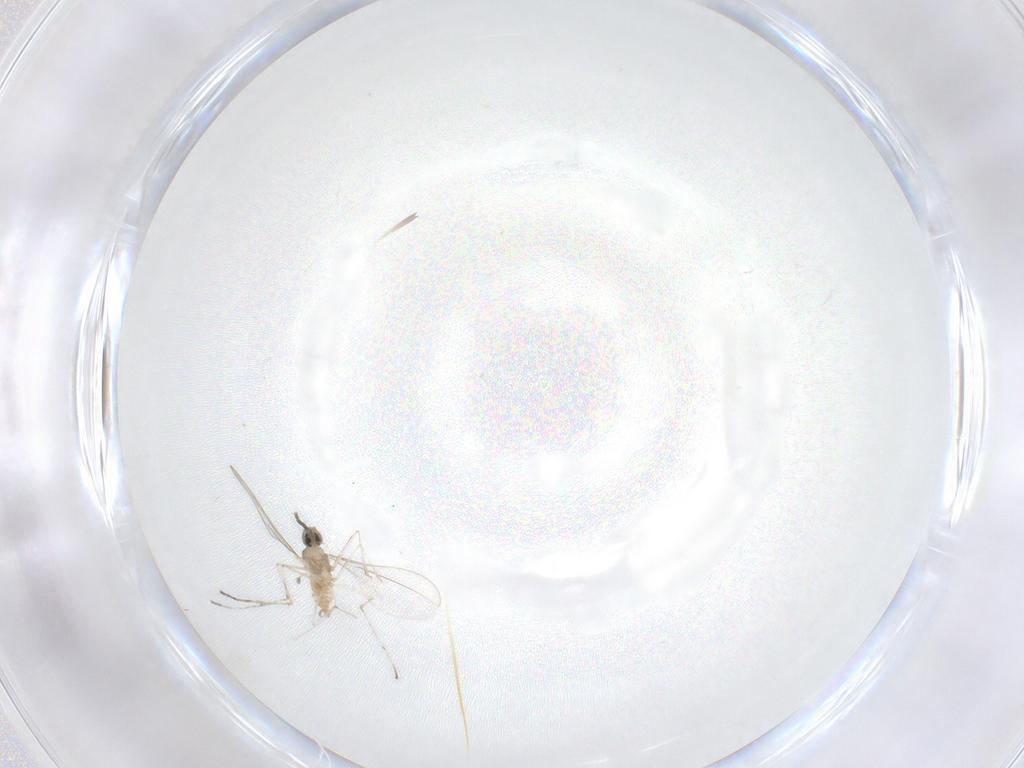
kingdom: Animalia
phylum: Arthropoda
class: Insecta
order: Diptera
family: Cecidomyiidae
